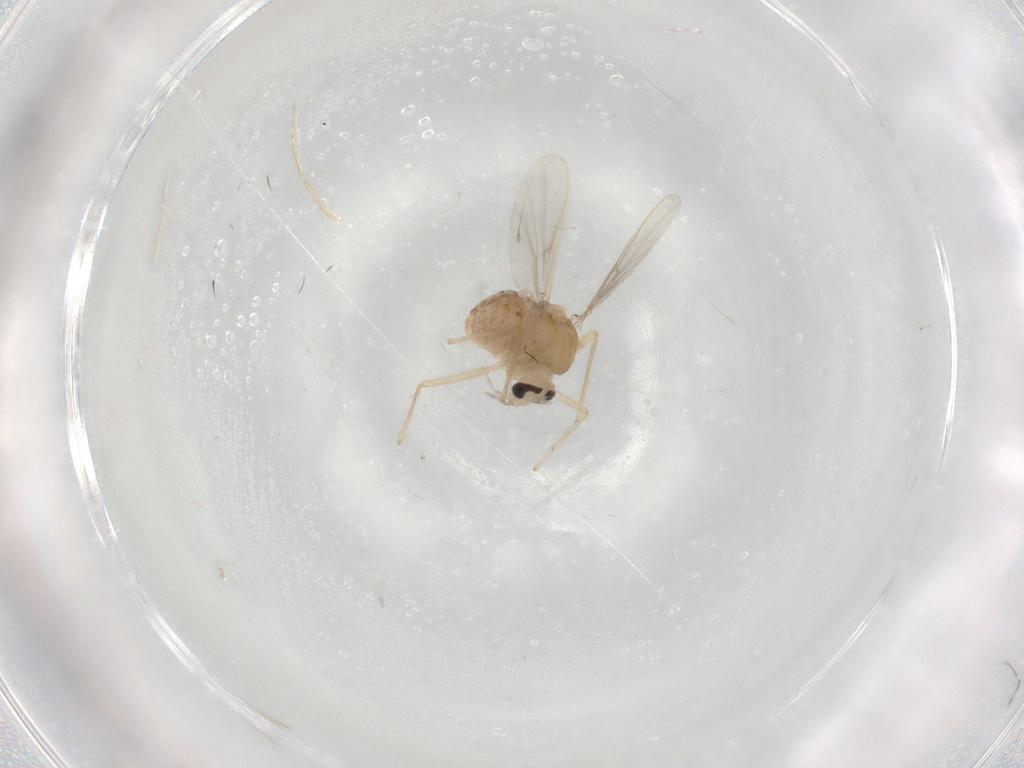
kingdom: Animalia
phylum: Arthropoda
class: Insecta
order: Diptera
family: Chironomidae
